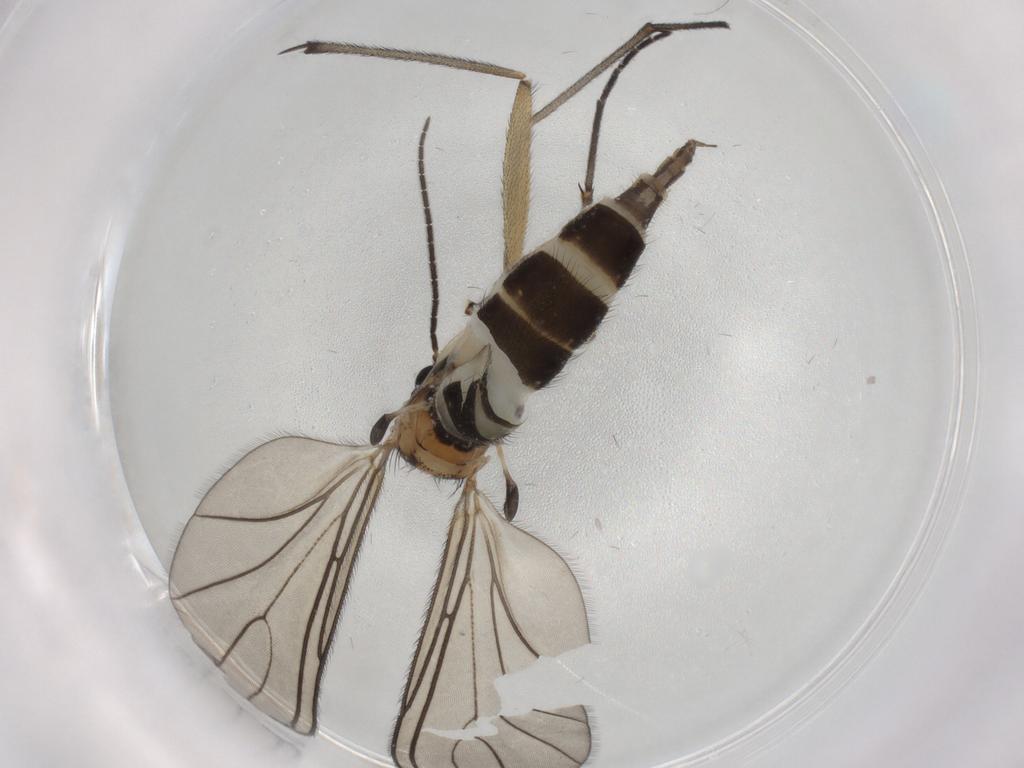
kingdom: Animalia
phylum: Arthropoda
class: Insecta
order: Diptera
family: Sciaridae
